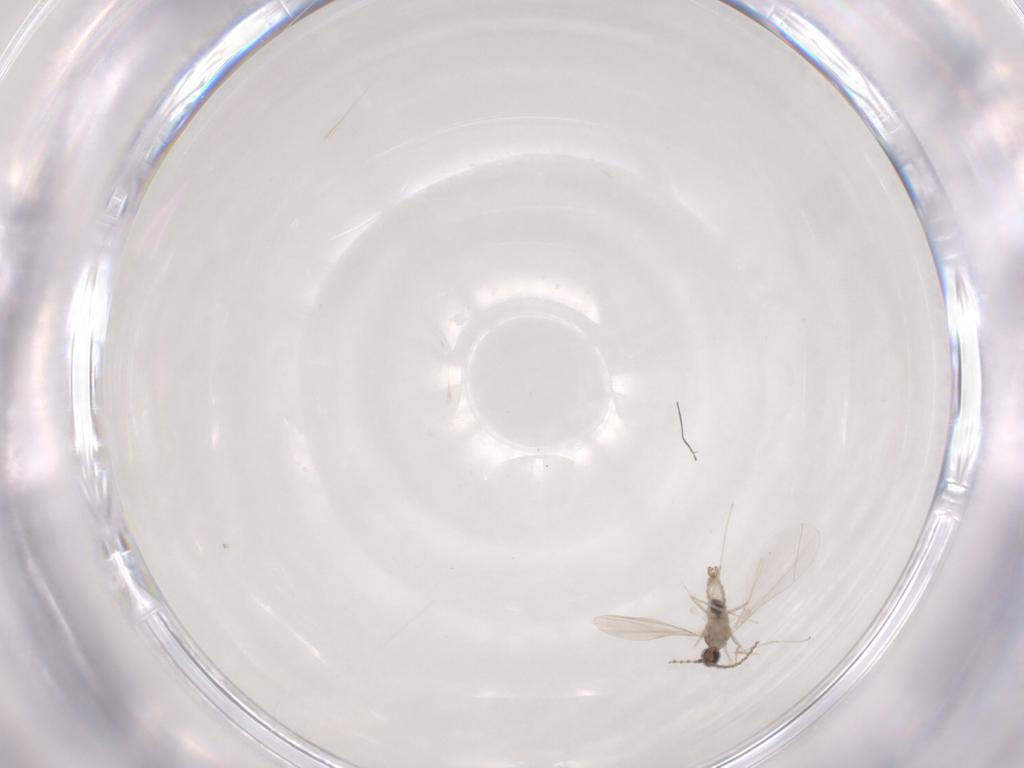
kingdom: Animalia
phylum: Arthropoda
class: Insecta
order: Diptera
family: Cecidomyiidae
